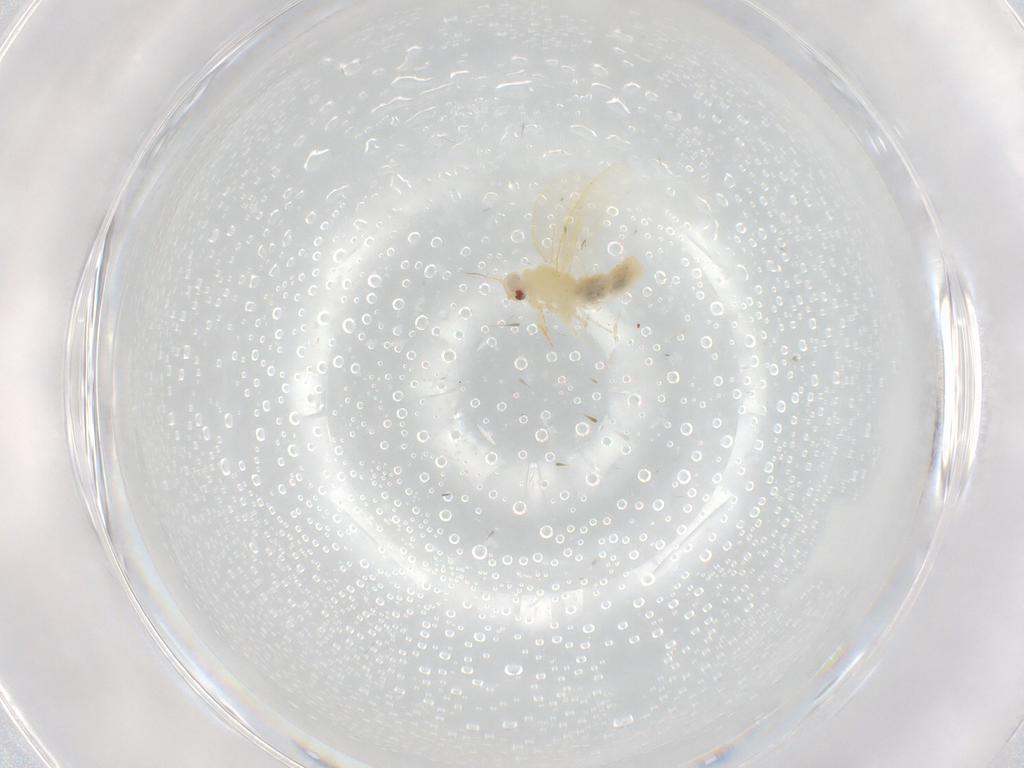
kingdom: Animalia
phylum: Arthropoda
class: Insecta
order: Hemiptera
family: Aleyrodidae
